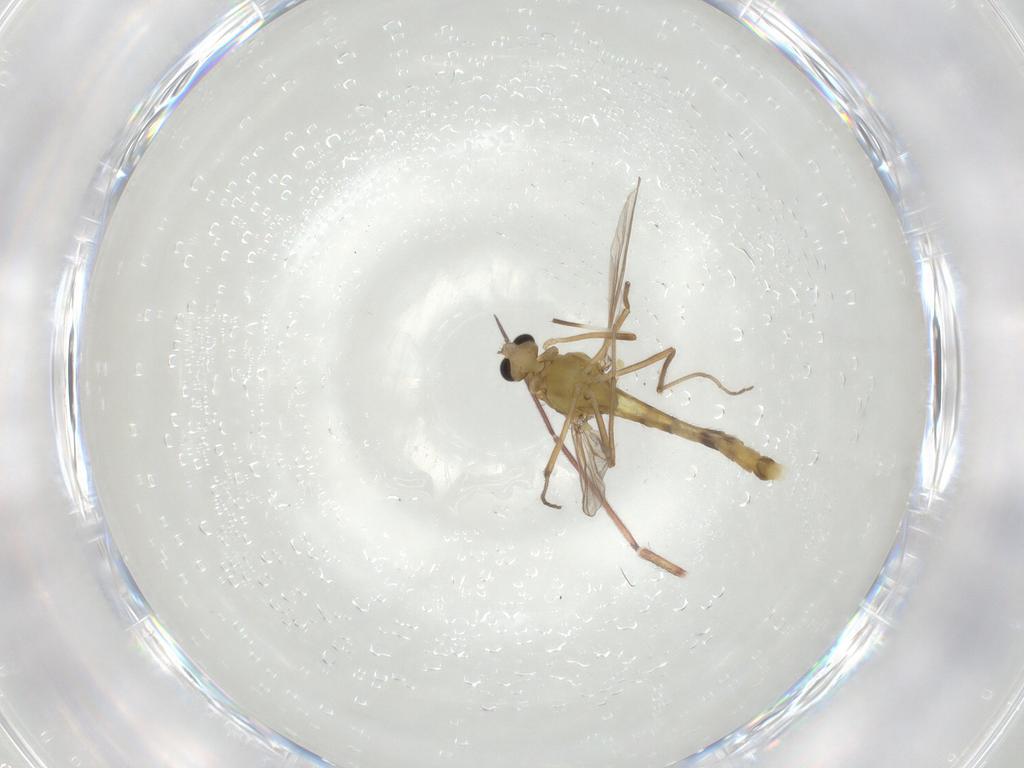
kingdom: Animalia
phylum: Arthropoda
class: Insecta
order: Diptera
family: Chironomidae
